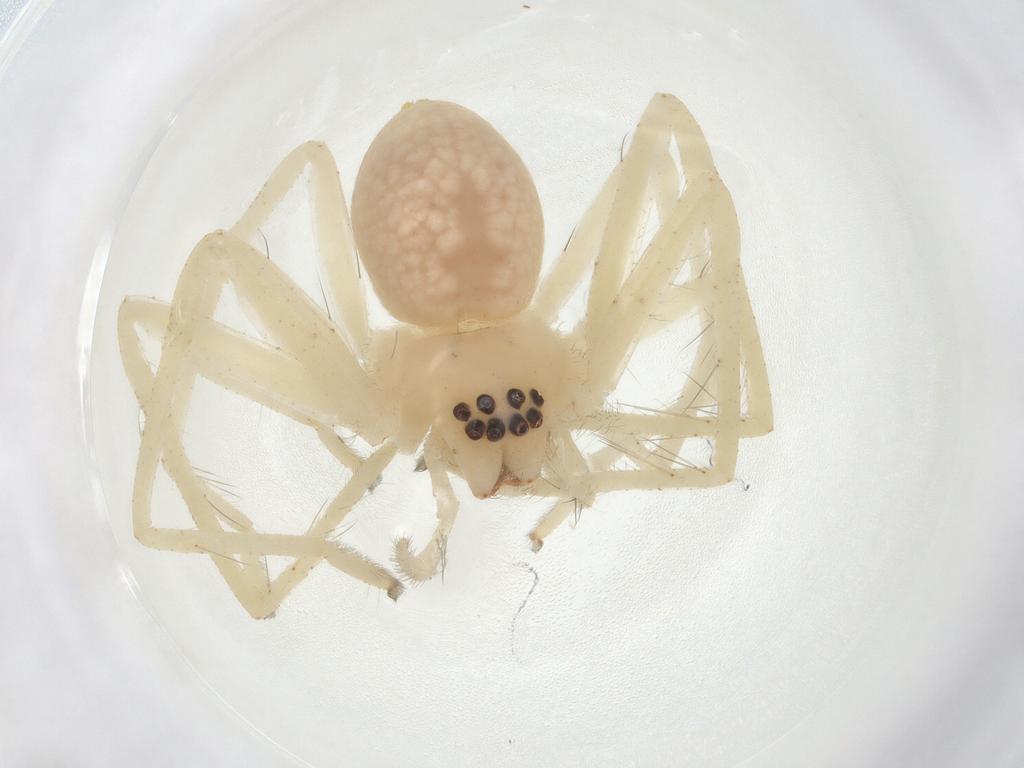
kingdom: Animalia
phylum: Arthropoda
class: Arachnida
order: Araneae
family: Sparassidae
